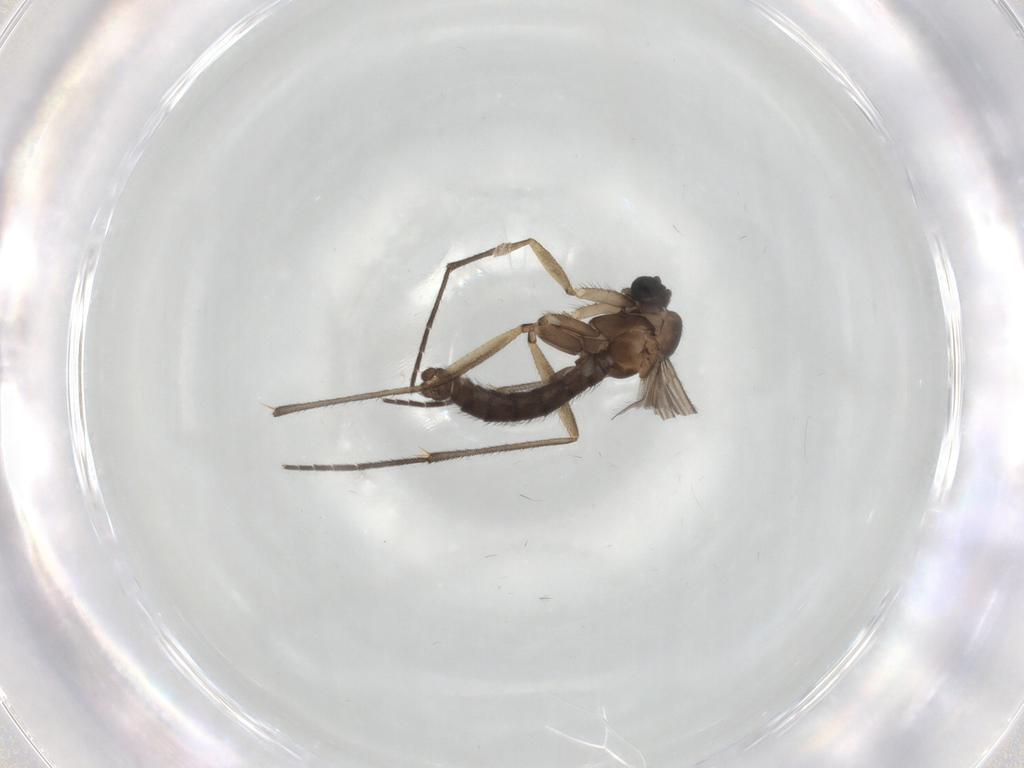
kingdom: Animalia
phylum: Arthropoda
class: Insecta
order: Diptera
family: Sciaridae
